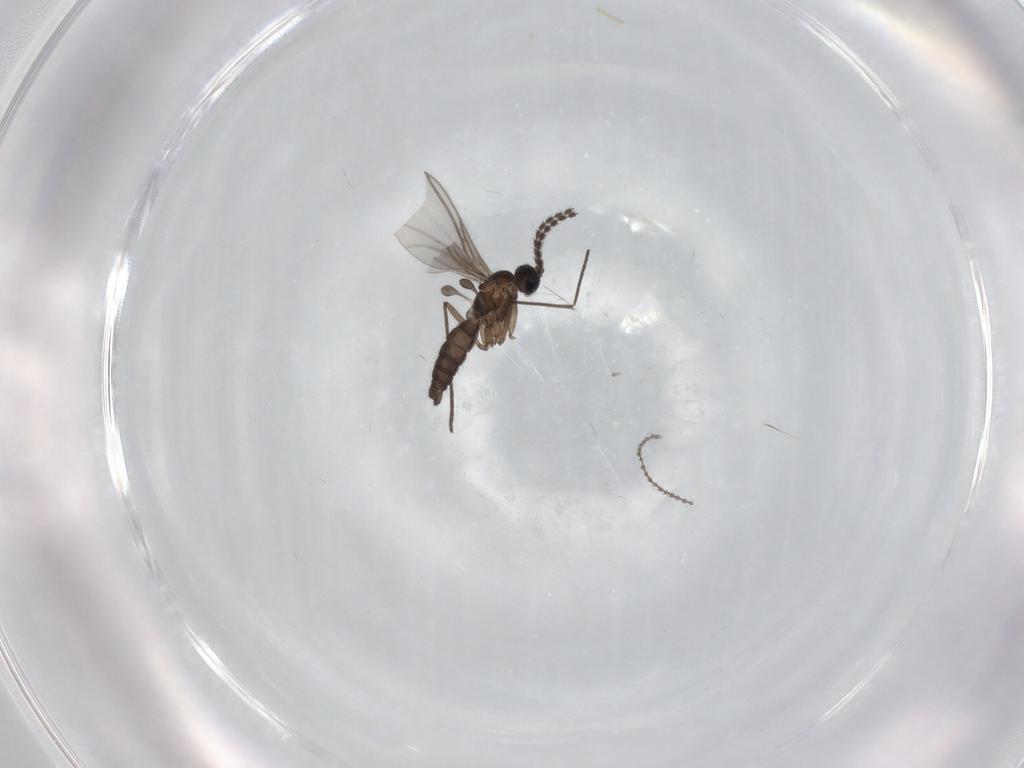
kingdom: Animalia
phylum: Arthropoda
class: Insecta
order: Diptera
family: Sciaridae
